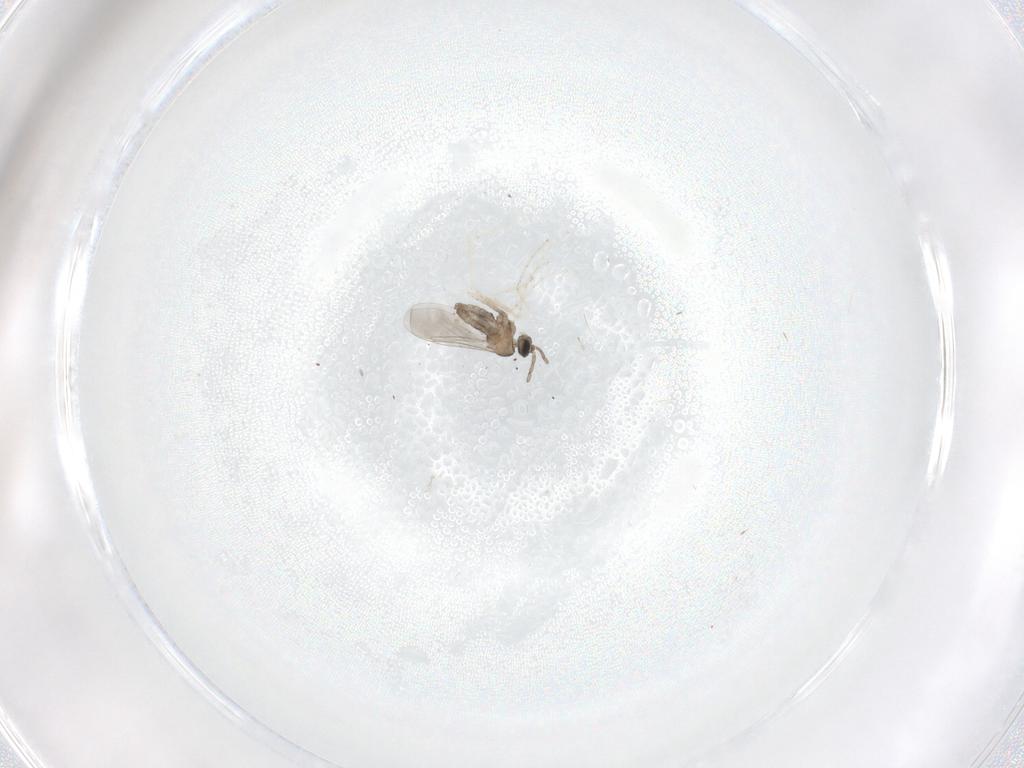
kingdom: Animalia
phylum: Arthropoda
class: Insecta
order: Diptera
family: Cecidomyiidae
